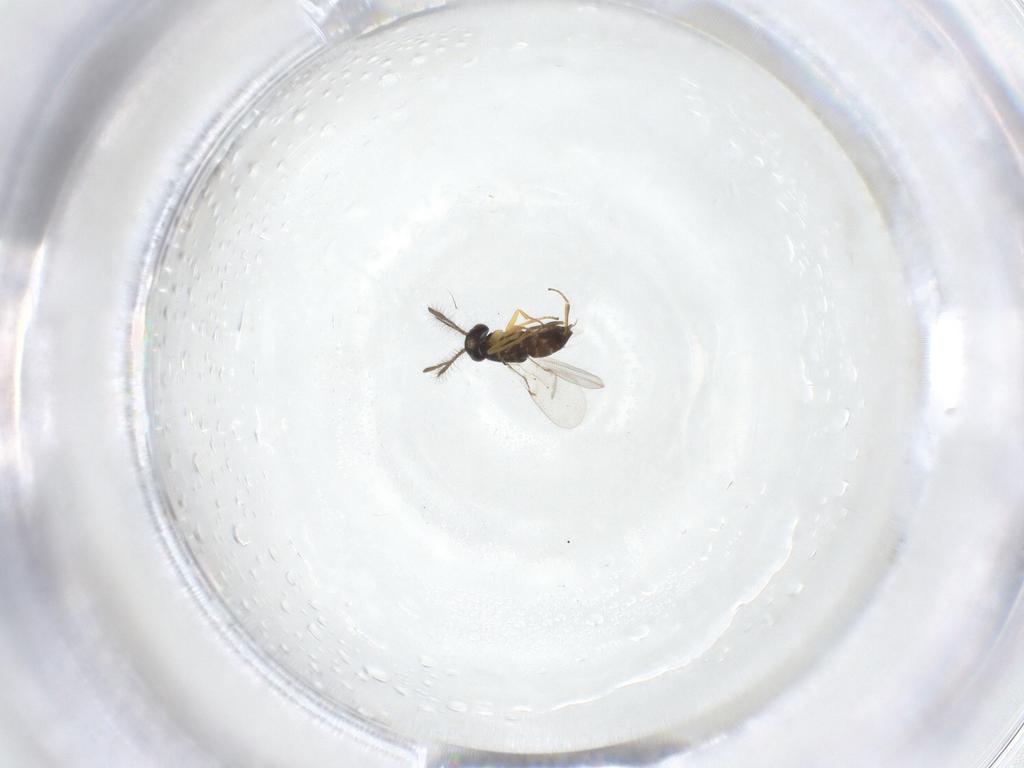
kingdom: Animalia
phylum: Arthropoda
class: Insecta
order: Hymenoptera
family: Encyrtidae
